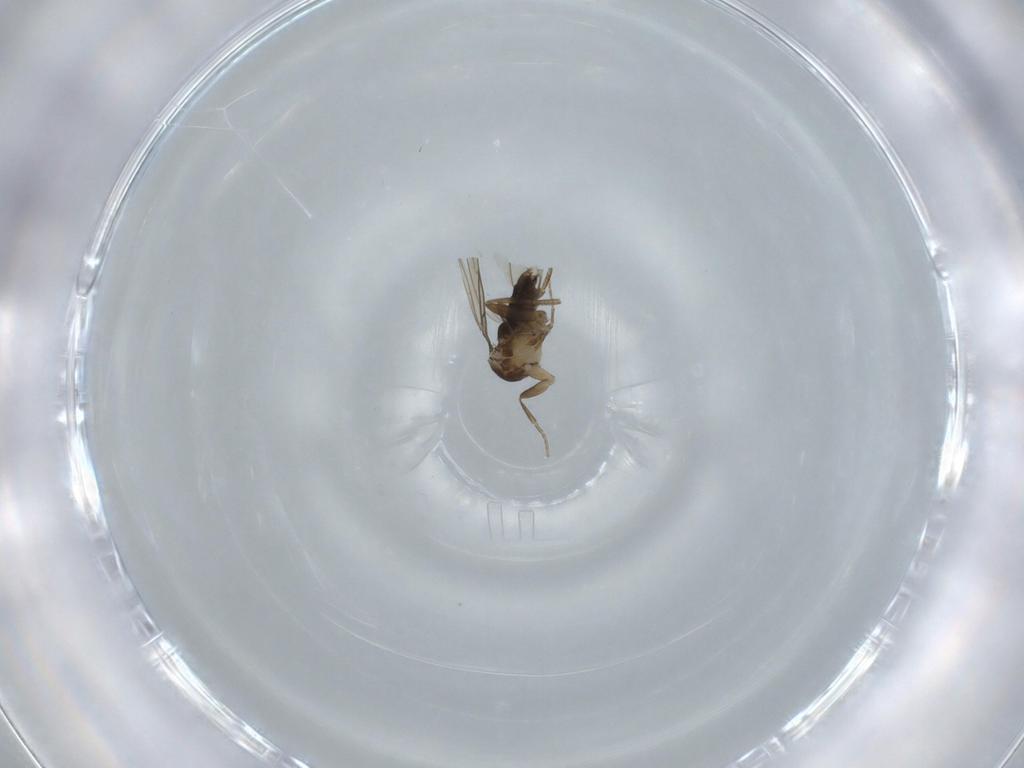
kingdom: Animalia
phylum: Arthropoda
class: Insecta
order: Diptera
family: Phoridae
